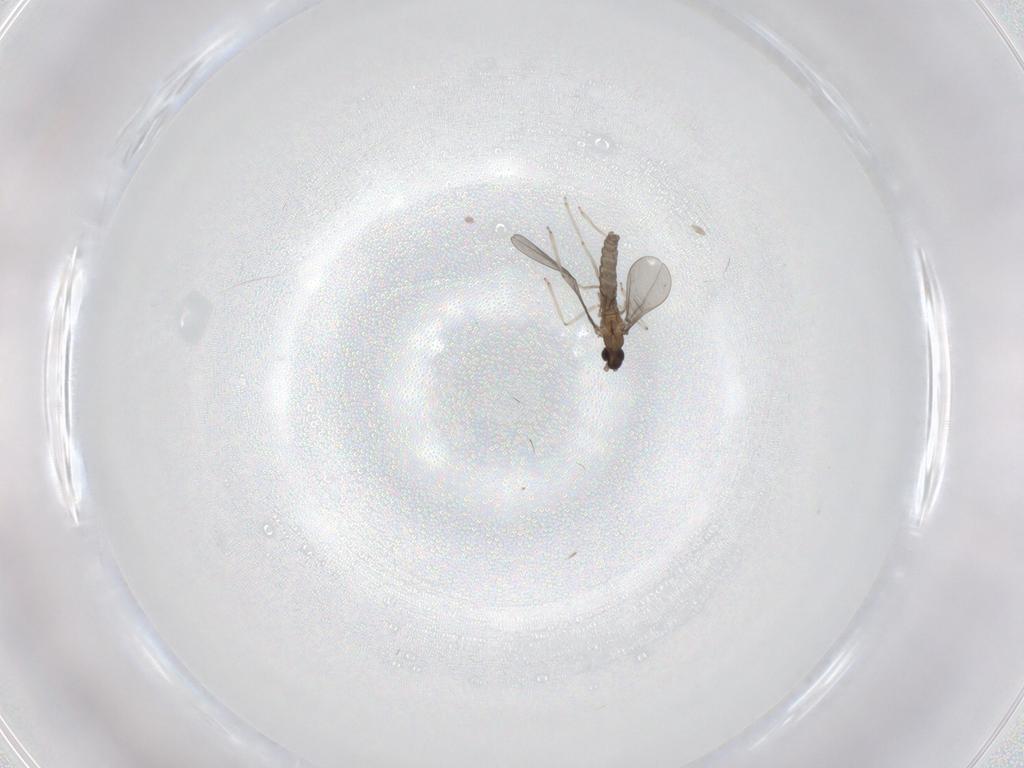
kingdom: Animalia
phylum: Arthropoda
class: Insecta
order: Diptera
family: Cecidomyiidae
